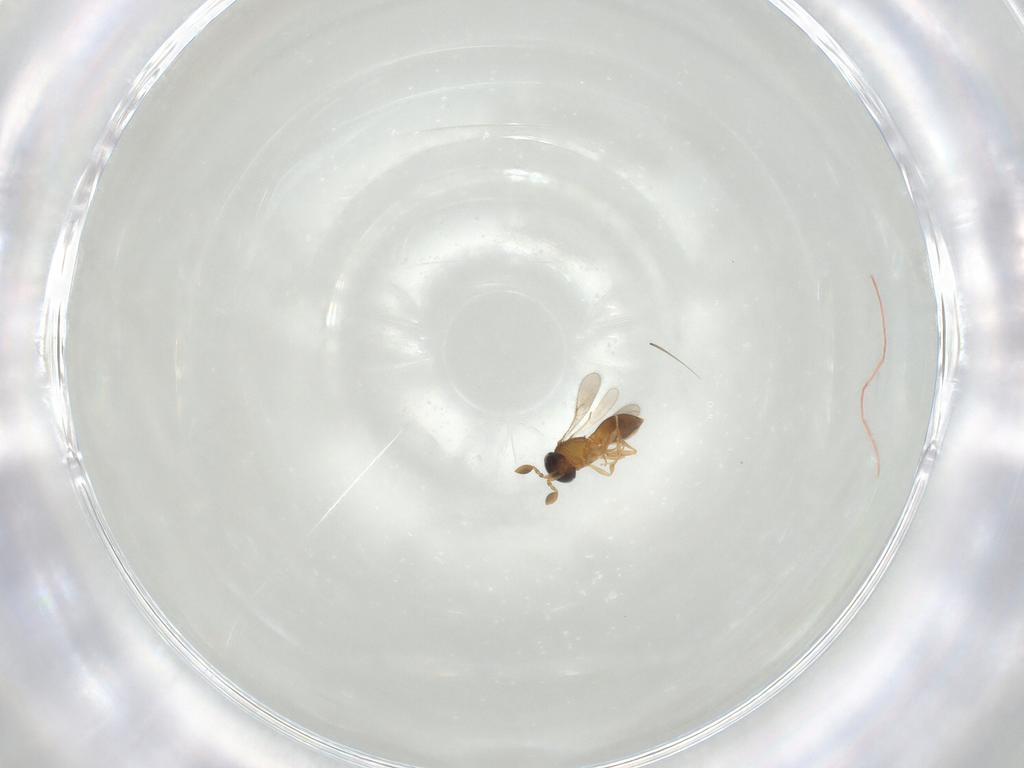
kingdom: Animalia
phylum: Arthropoda
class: Insecta
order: Hymenoptera
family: Scelionidae
